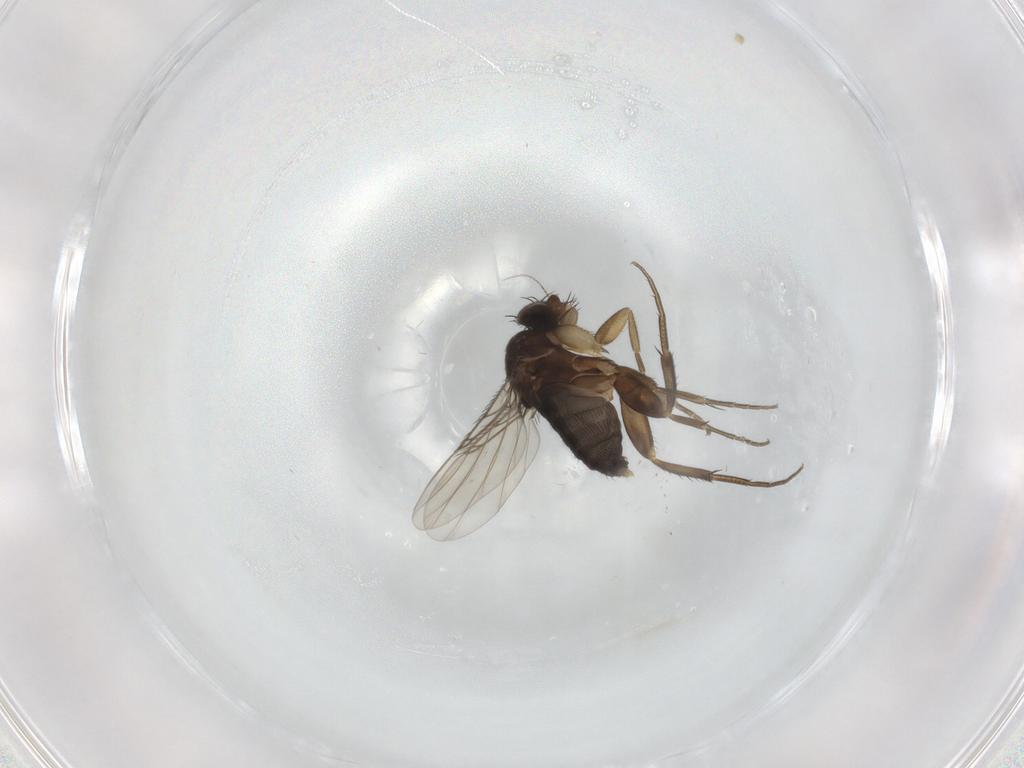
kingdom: Animalia
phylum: Arthropoda
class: Insecta
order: Diptera
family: Phoridae
